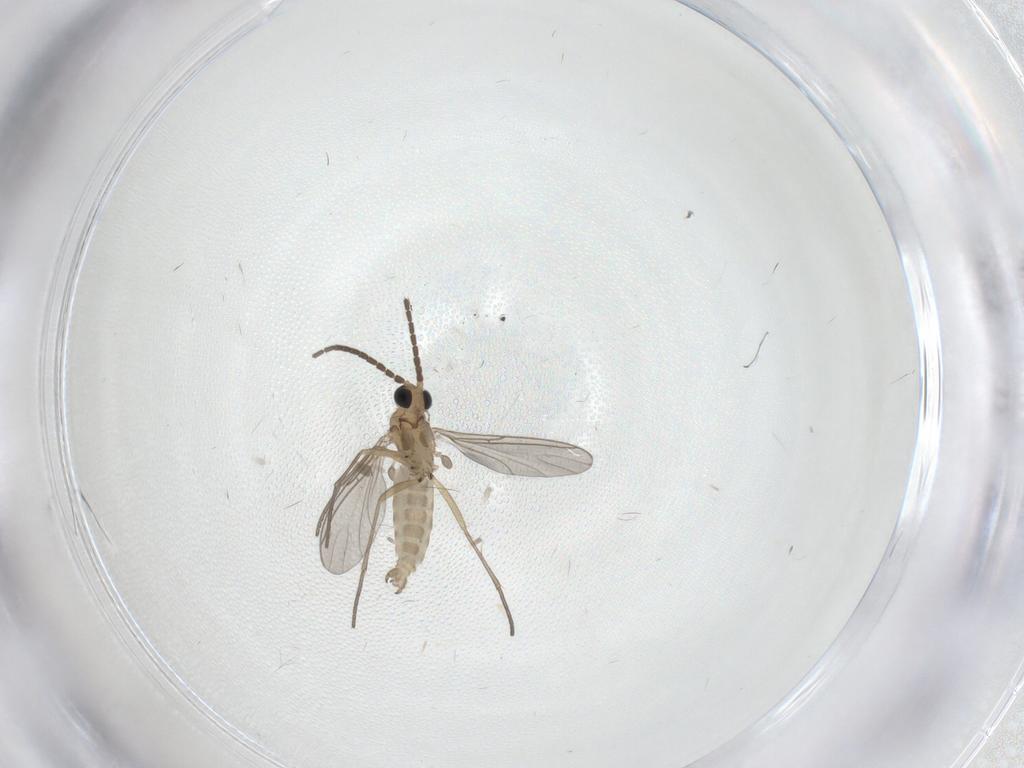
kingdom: Animalia
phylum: Arthropoda
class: Insecta
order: Diptera
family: Sciaridae
